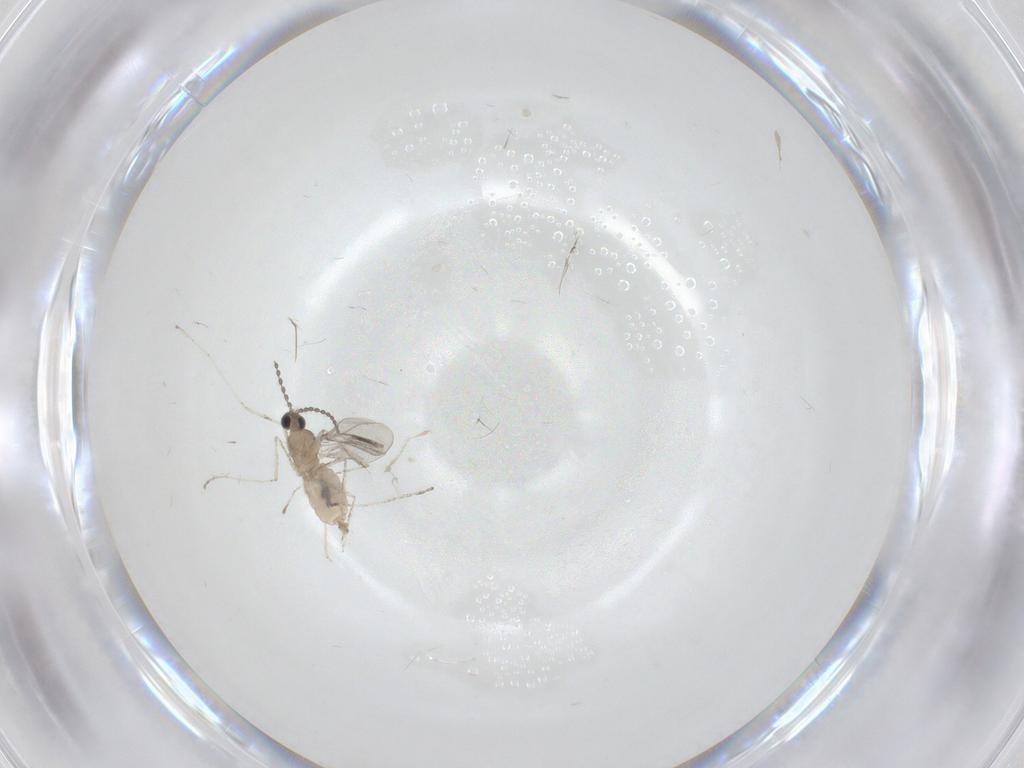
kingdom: Animalia
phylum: Arthropoda
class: Insecta
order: Diptera
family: Cecidomyiidae
